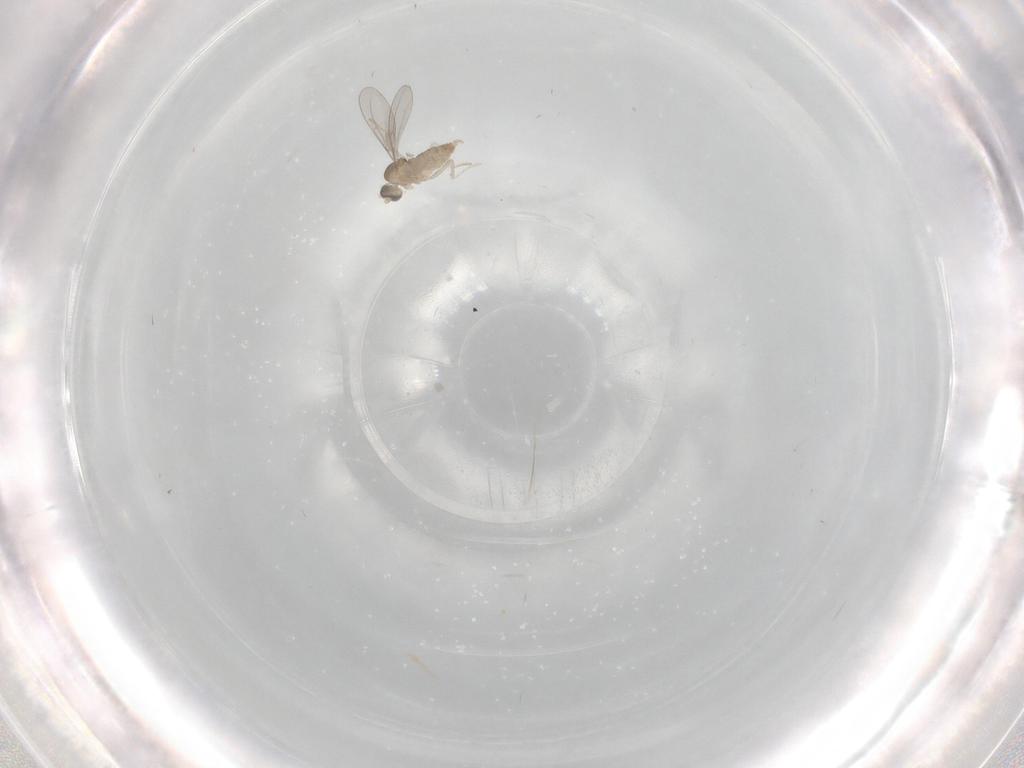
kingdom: Animalia
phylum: Arthropoda
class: Insecta
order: Diptera
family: Cecidomyiidae
